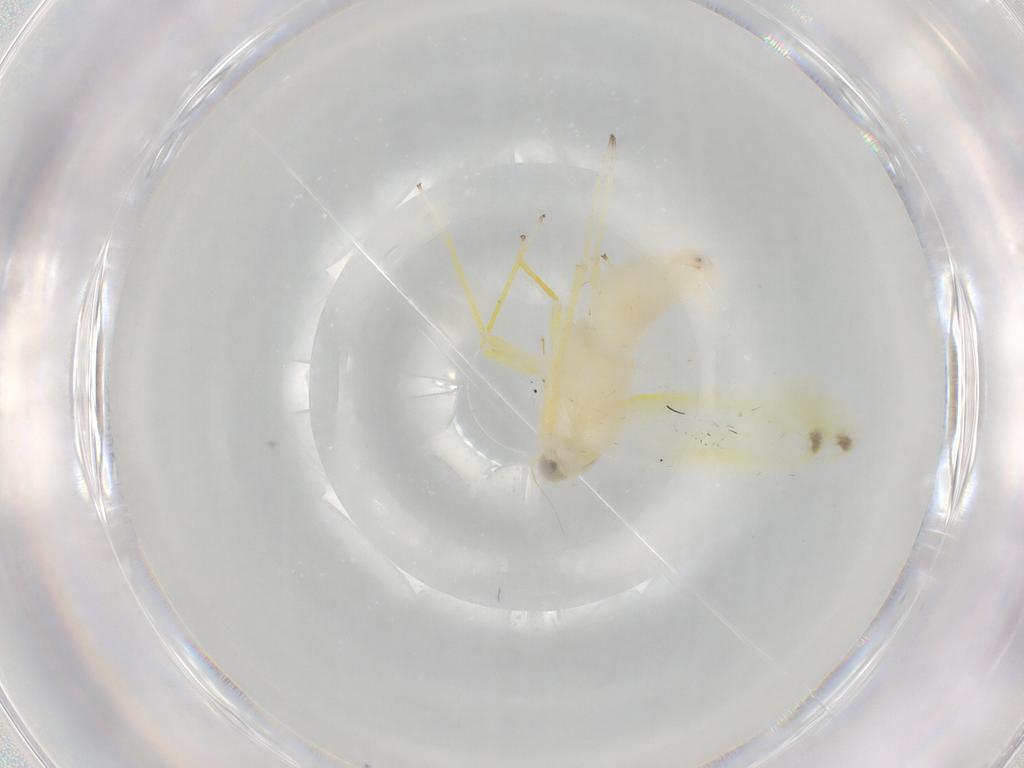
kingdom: Animalia
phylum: Arthropoda
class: Insecta
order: Hemiptera
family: Cicadellidae
